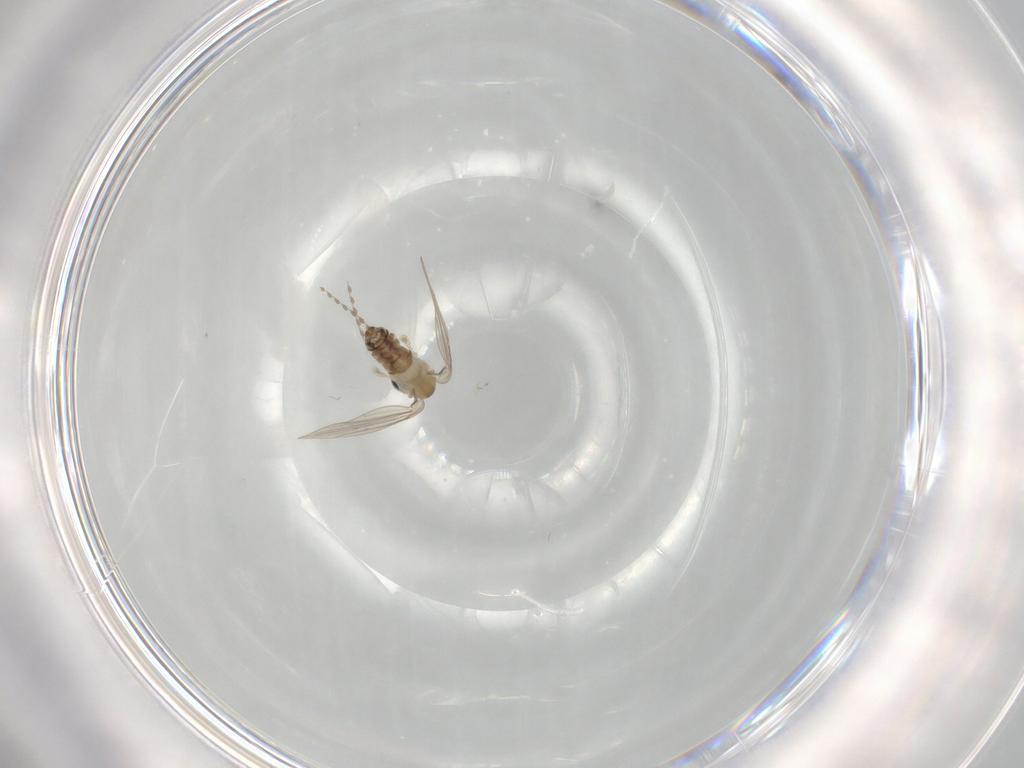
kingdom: Animalia
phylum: Arthropoda
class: Insecta
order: Diptera
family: Psychodidae
